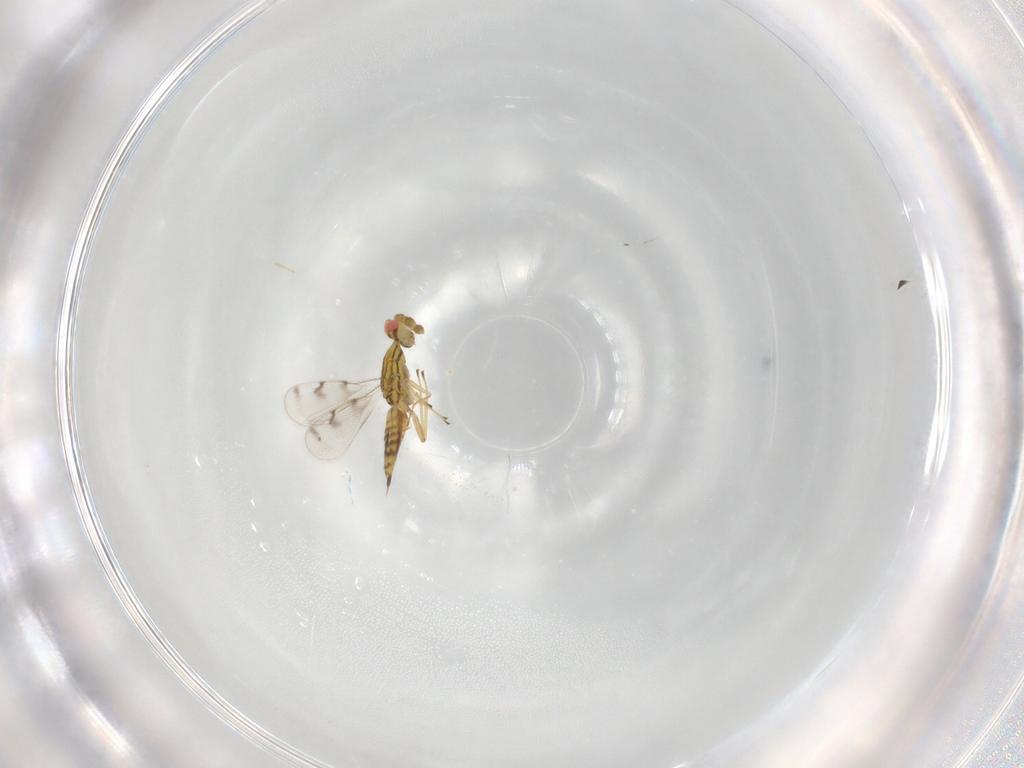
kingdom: Animalia
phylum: Arthropoda
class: Insecta
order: Hymenoptera
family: Eulophidae
